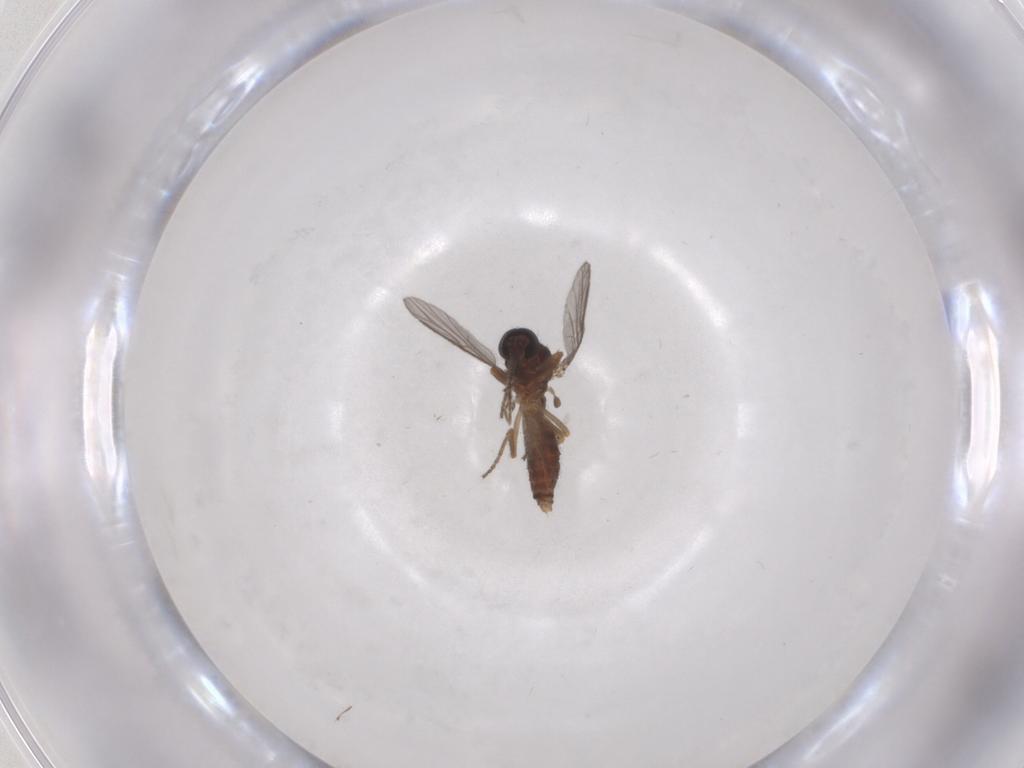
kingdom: Animalia
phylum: Arthropoda
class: Insecta
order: Diptera
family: Ceratopogonidae
